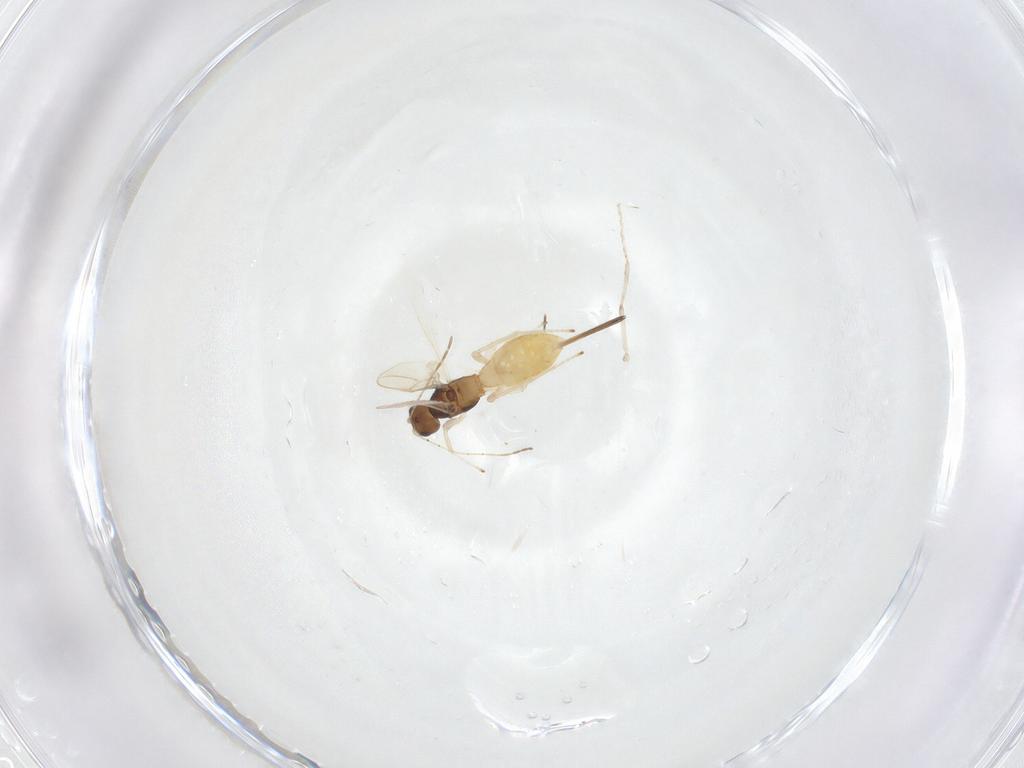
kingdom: Animalia
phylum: Arthropoda
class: Insecta
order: Hymenoptera
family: Braconidae
